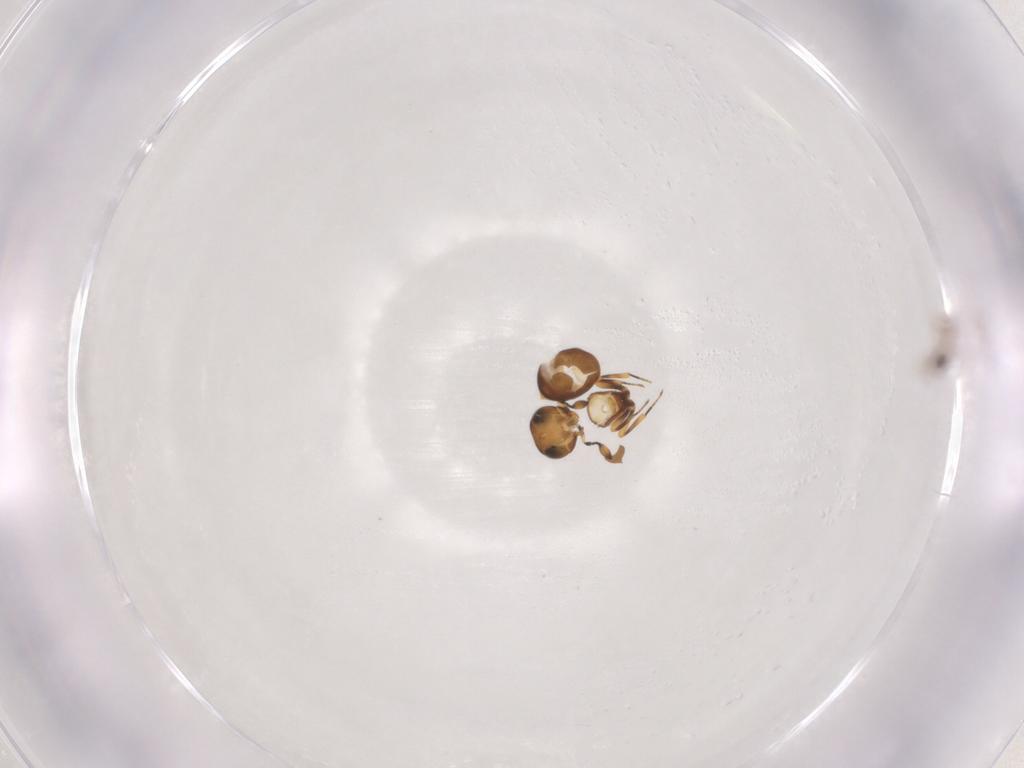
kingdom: Animalia
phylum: Arthropoda
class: Insecta
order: Hymenoptera
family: Scelionidae
